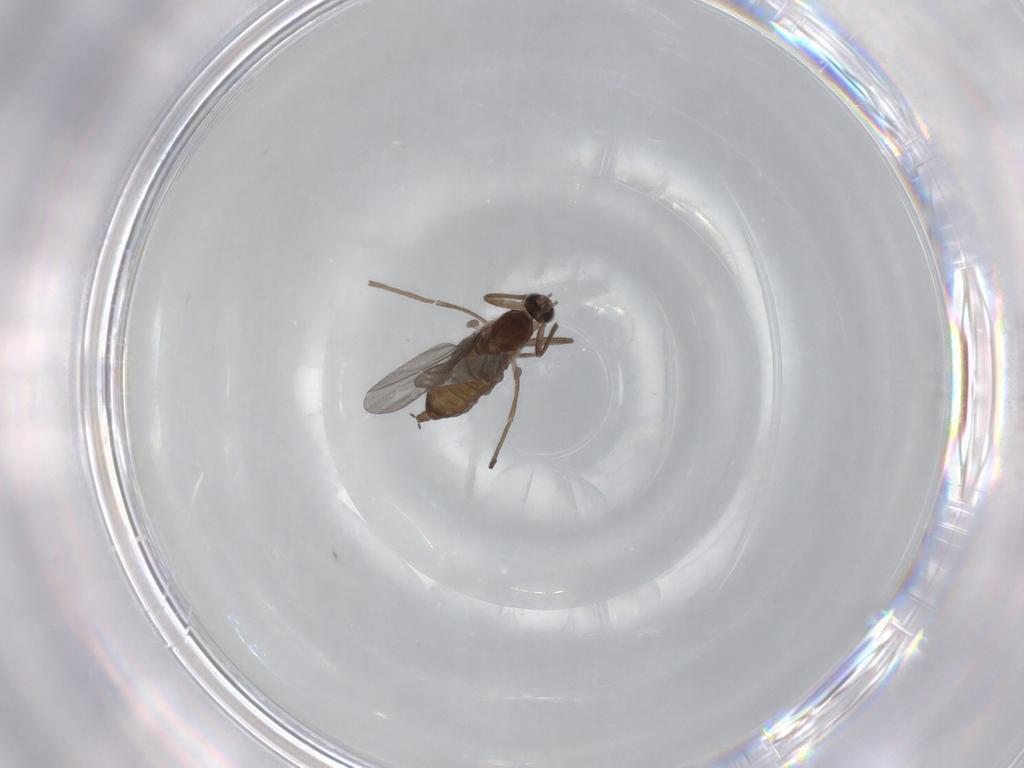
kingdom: Animalia
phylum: Arthropoda
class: Insecta
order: Diptera
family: Cecidomyiidae
